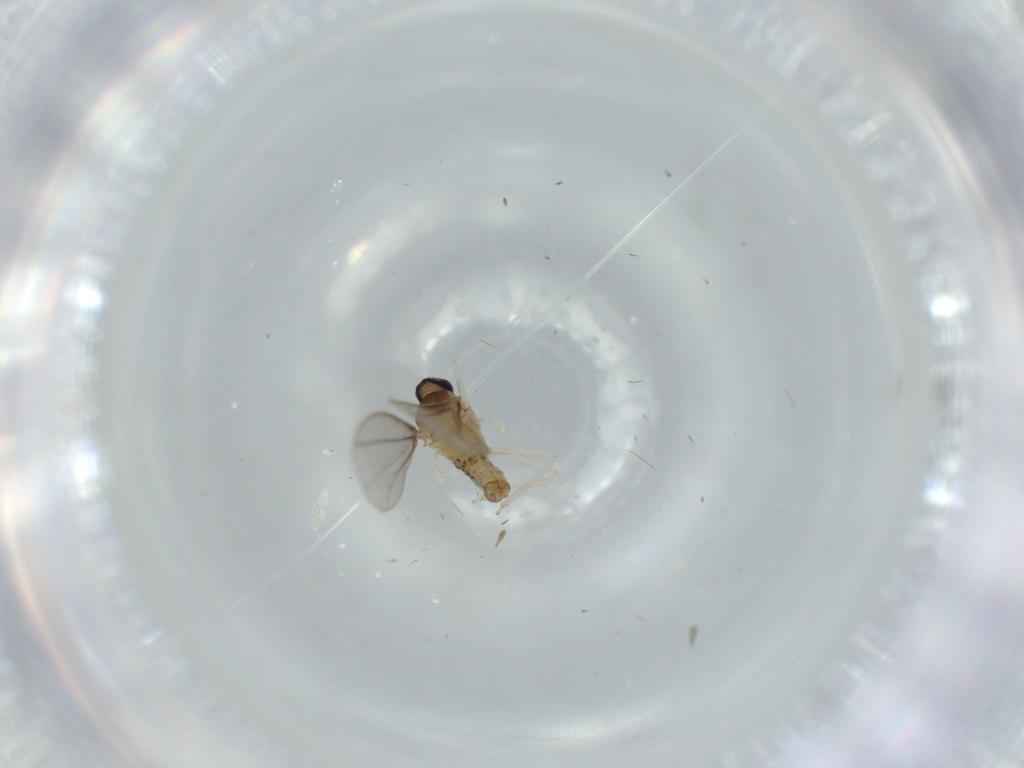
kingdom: Animalia
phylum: Arthropoda
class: Insecta
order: Diptera
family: Cecidomyiidae
